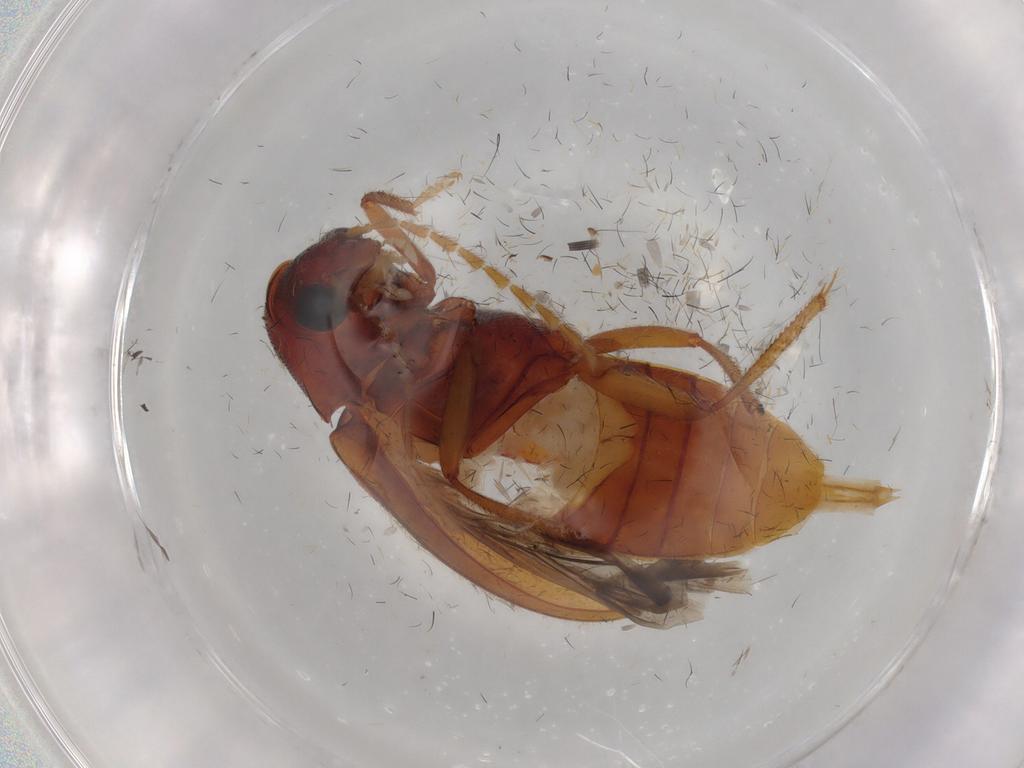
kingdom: Animalia
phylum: Arthropoda
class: Insecta
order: Coleoptera
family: Ptilodactylidae
